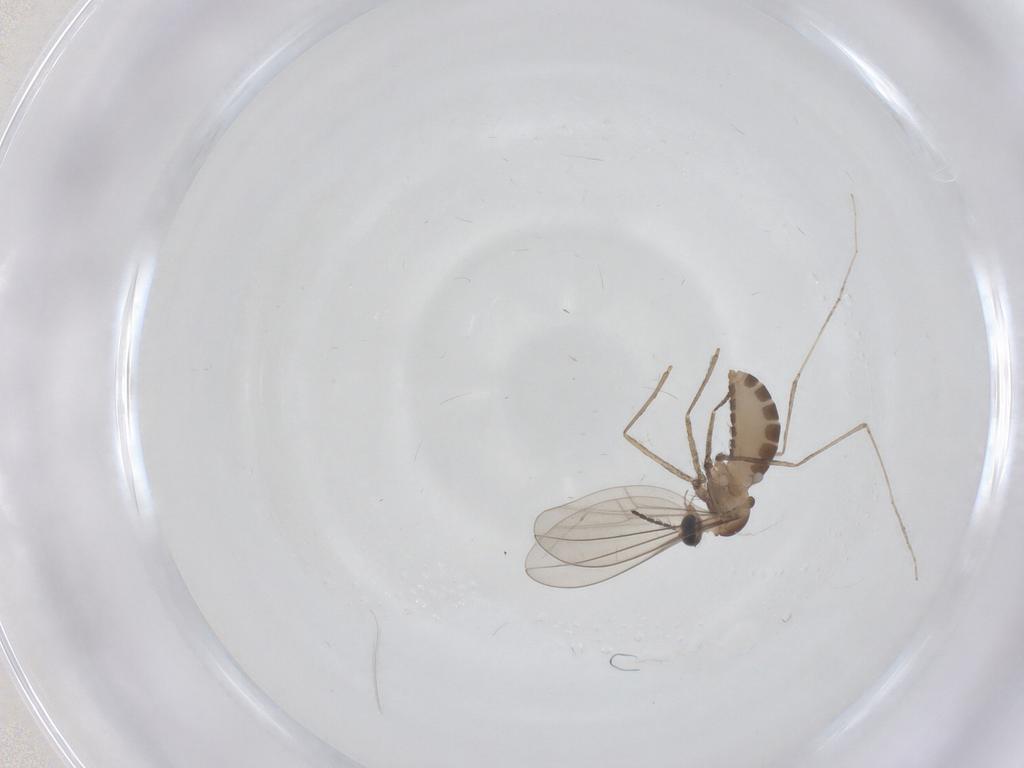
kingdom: Animalia
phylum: Arthropoda
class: Insecta
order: Diptera
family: Cecidomyiidae
